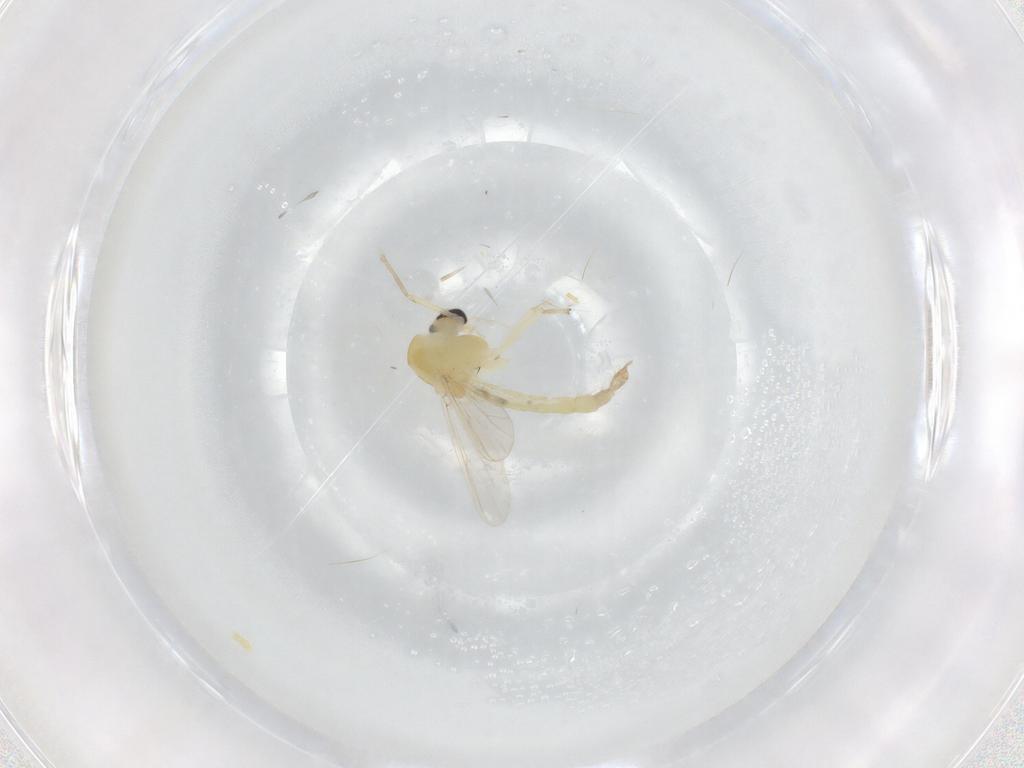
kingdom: Animalia
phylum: Arthropoda
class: Insecta
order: Diptera
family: Chironomidae
